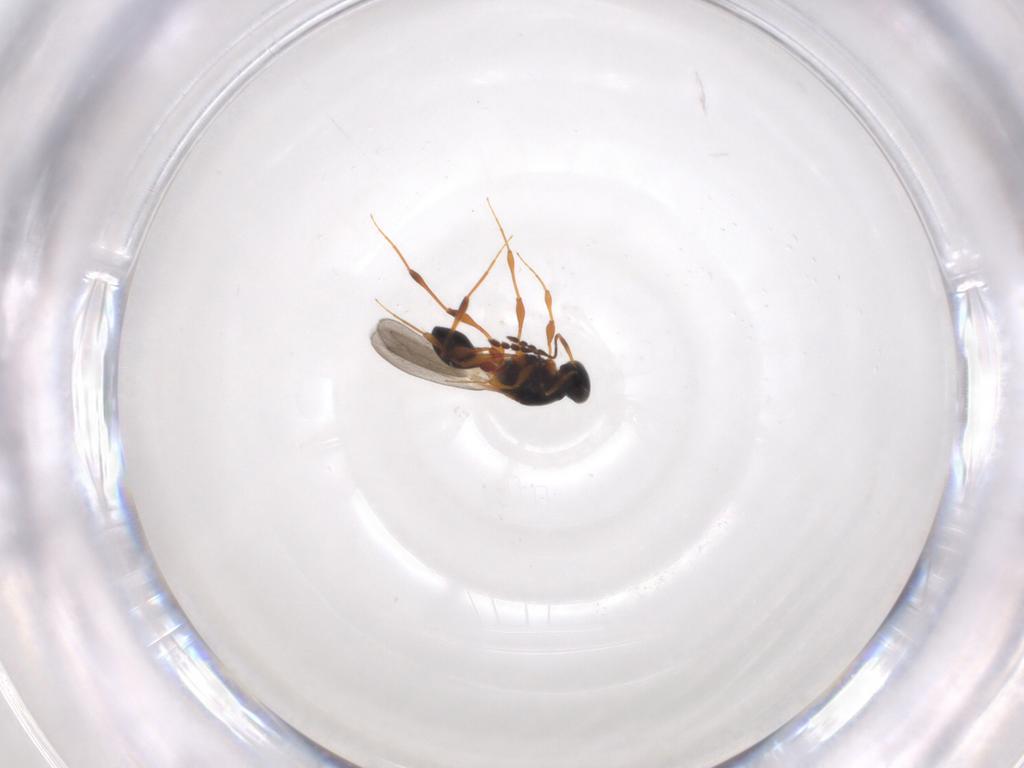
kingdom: Animalia
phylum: Arthropoda
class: Insecta
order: Hymenoptera
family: Platygastridae
